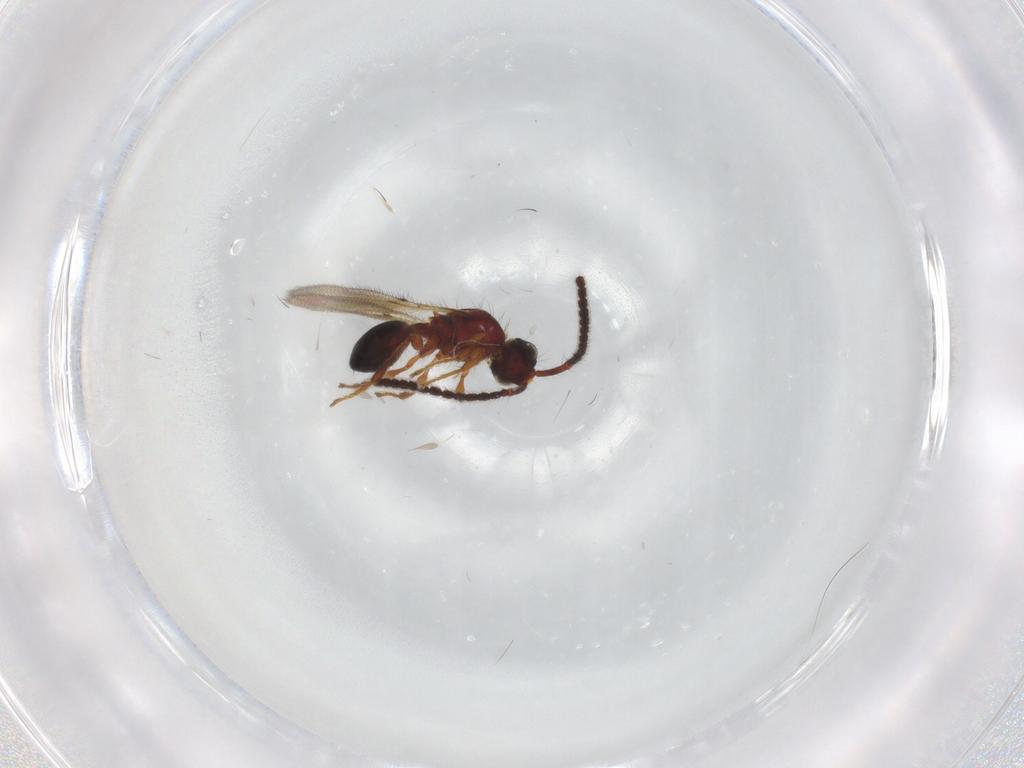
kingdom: Animalia
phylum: Arthropoda
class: Insecta
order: Hymenoptera
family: Diapriidae
